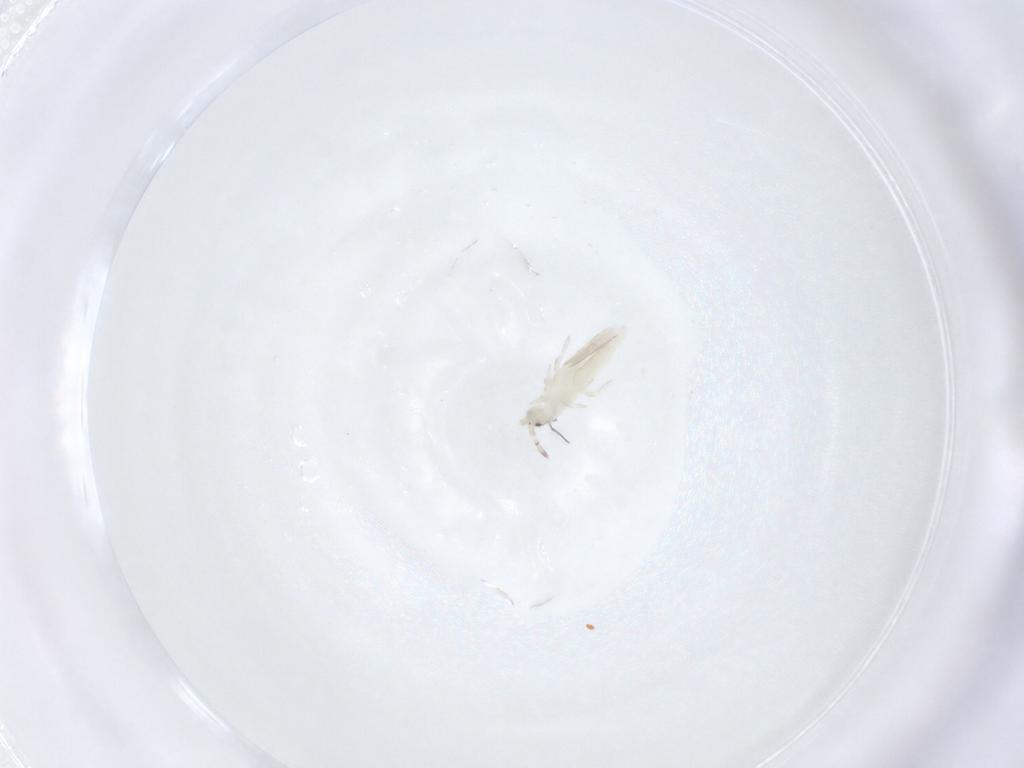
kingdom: Animalia
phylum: Arthropoda
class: Collembola
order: Entomobryomorpha
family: Entomobryidae
